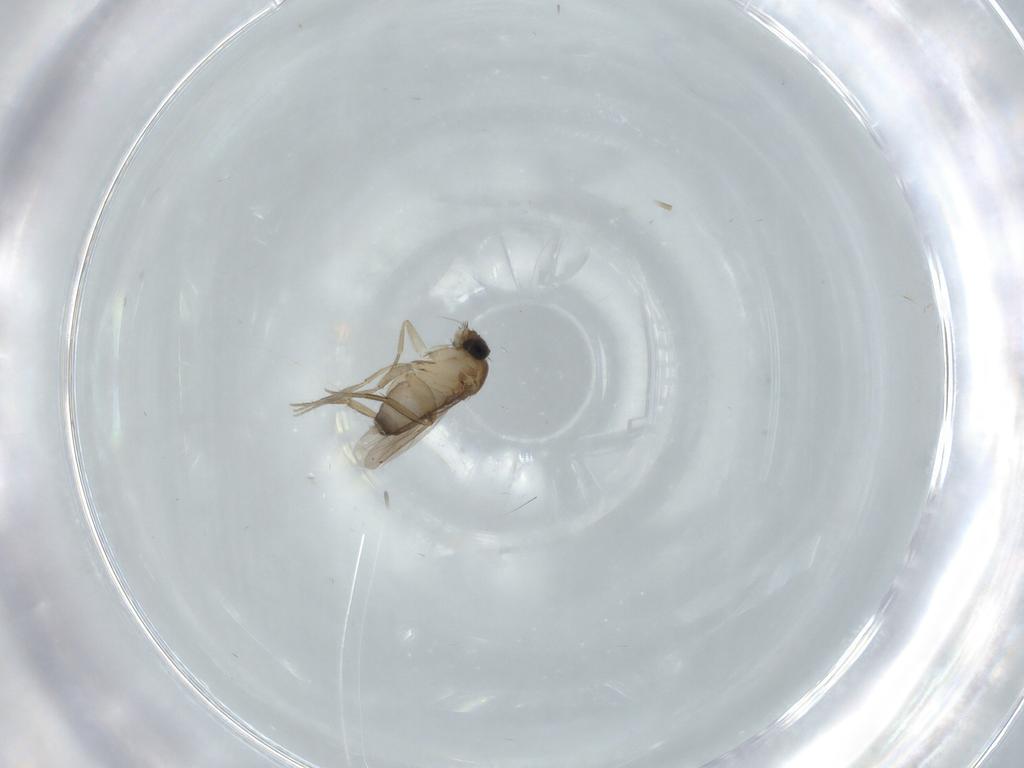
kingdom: Animalia
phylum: Arthropoda
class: Insecta
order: Diptera
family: Phoridae
